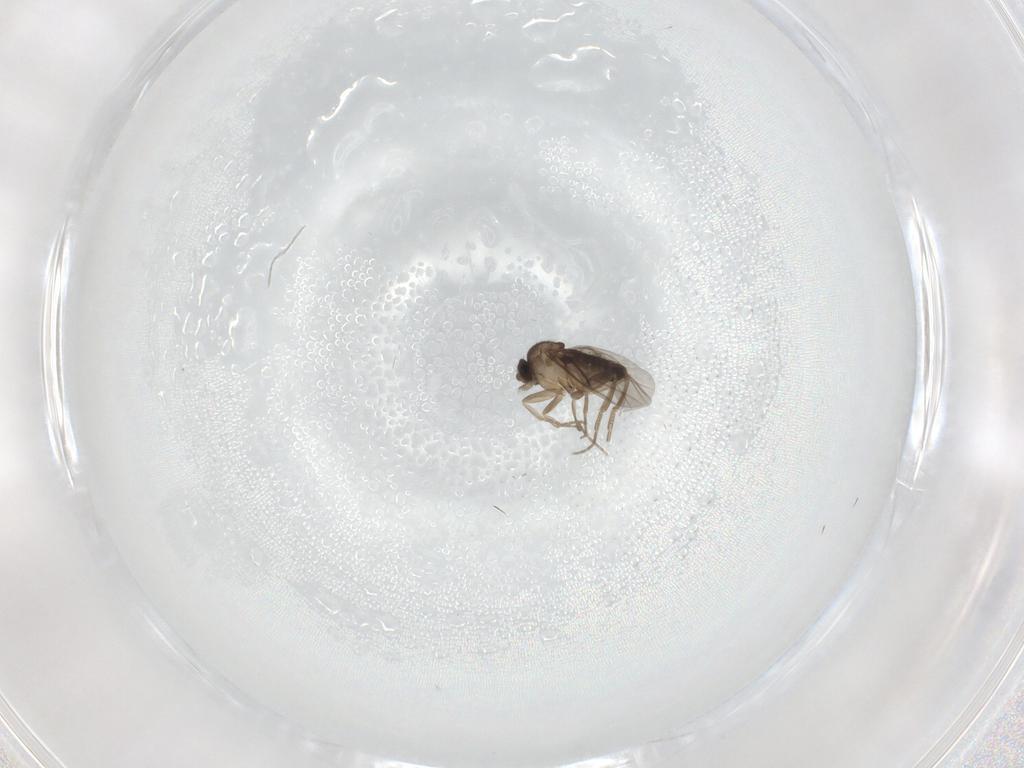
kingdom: Animalia
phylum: Arthropoda
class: Insecta
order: Diptera
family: Phoridae
